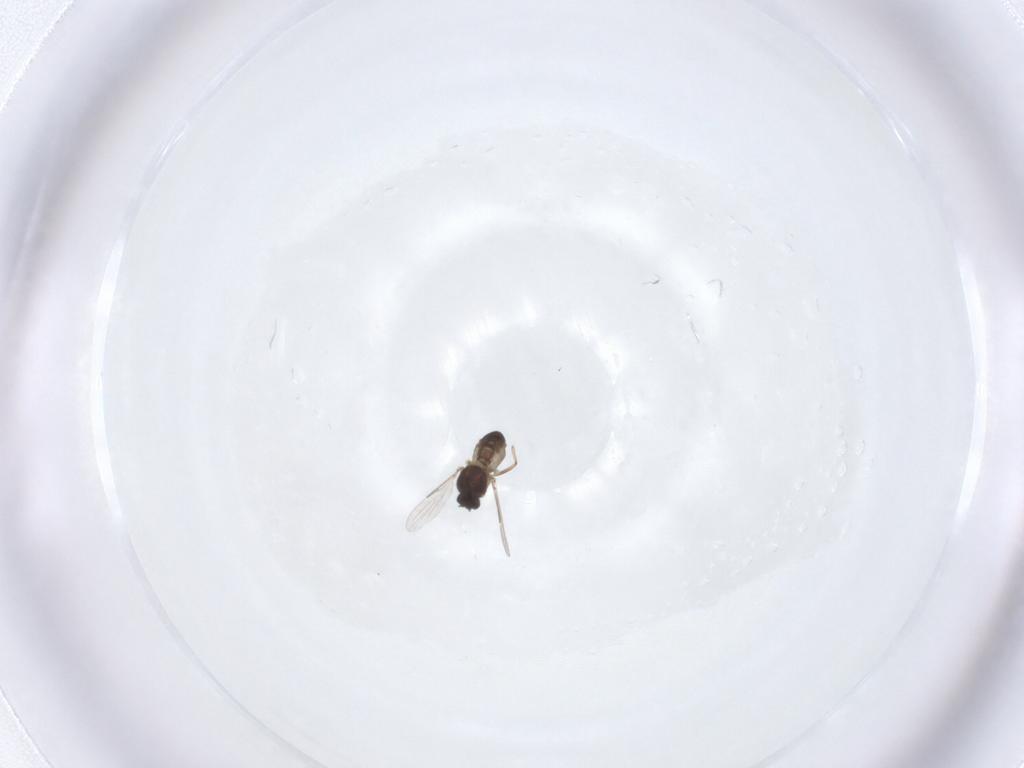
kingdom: Animalia
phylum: Arthropoda
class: Insecta
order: Diptera
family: Ceratopogonidae
